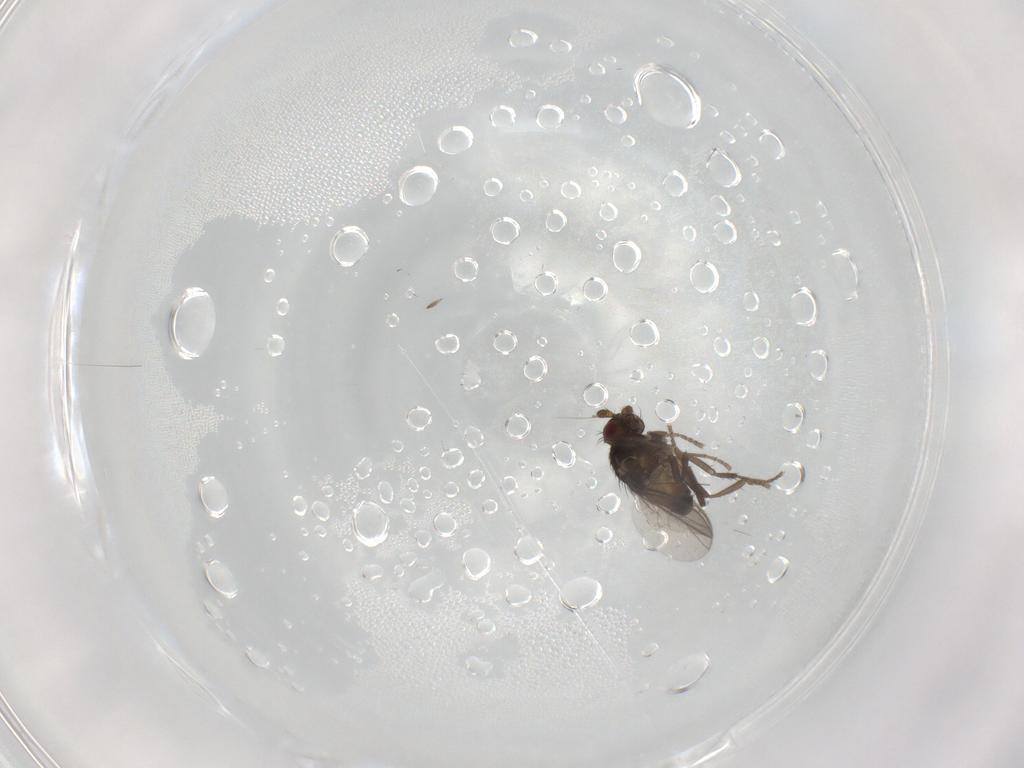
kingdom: Animalia
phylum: Arthropoda
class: Insecta
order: Diptera
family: Sphaeroceridae
